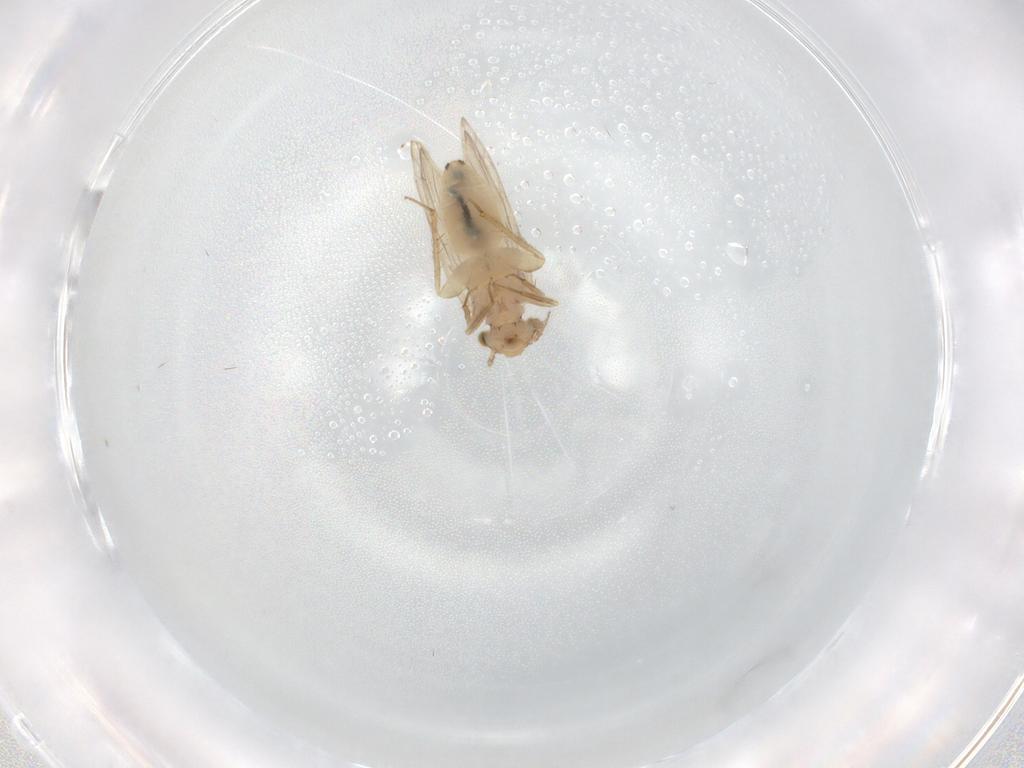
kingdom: Animalia
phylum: Arthropoda
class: Insecta
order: Psocodea
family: Lepidopsocidae
